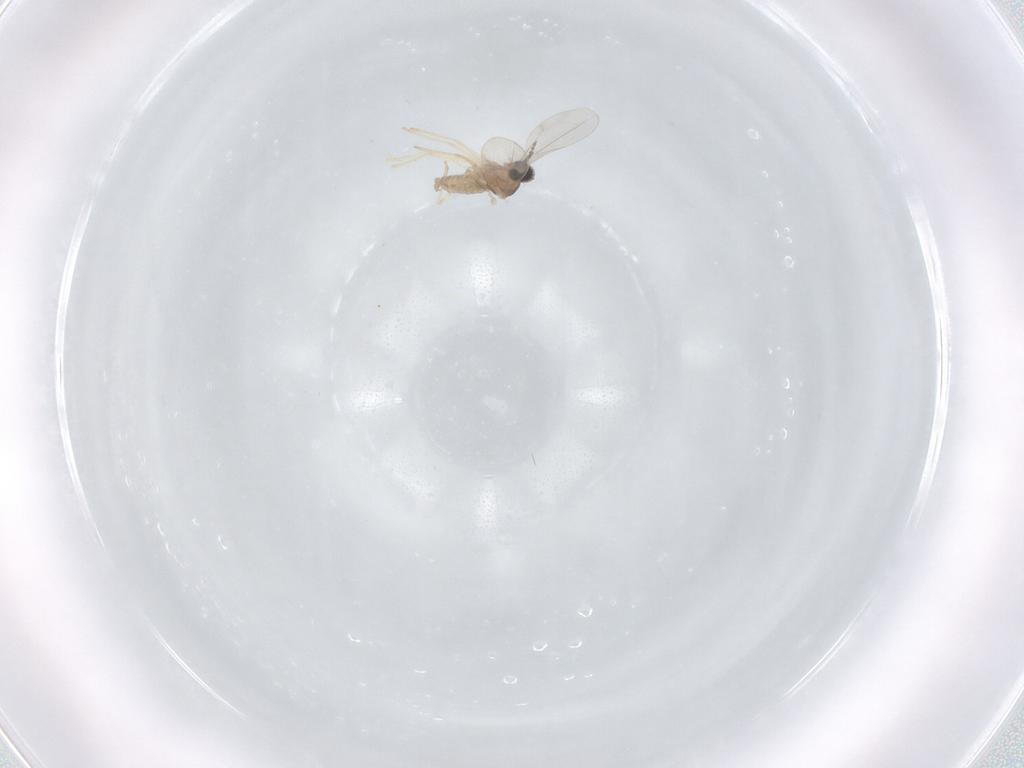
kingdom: Animalia
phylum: Arthropoda
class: Insecta
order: Diptera
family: Cecidomyiidae
